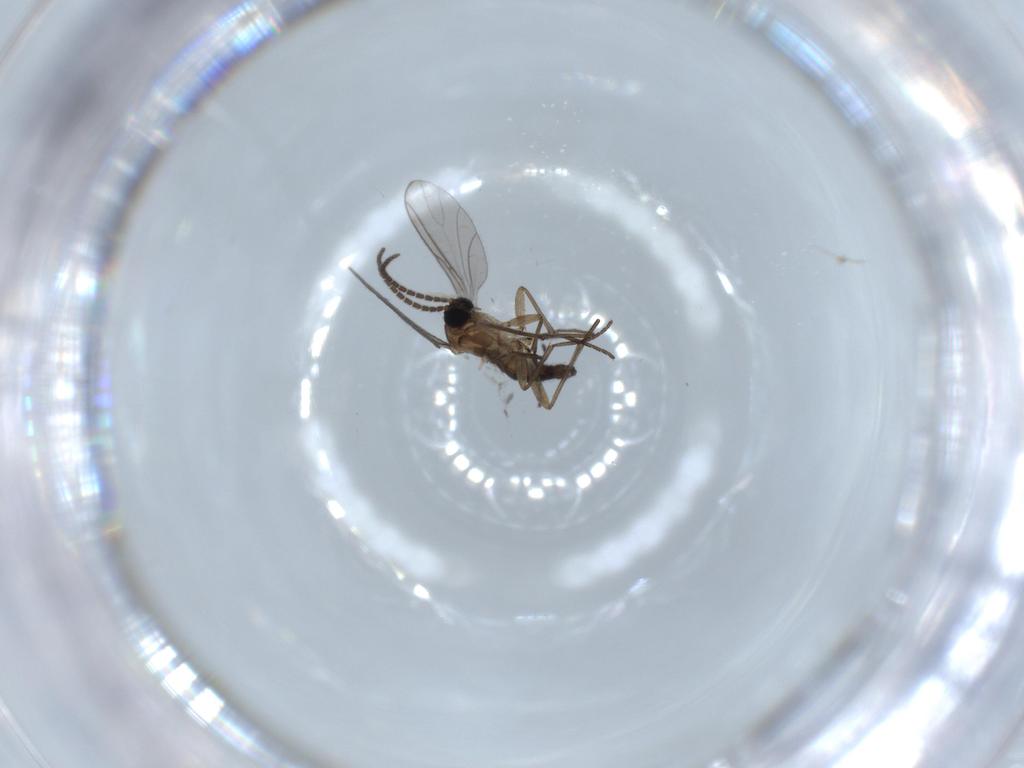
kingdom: Animalia
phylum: Arthropoda
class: Insecta
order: Diptera
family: Sciaridae
